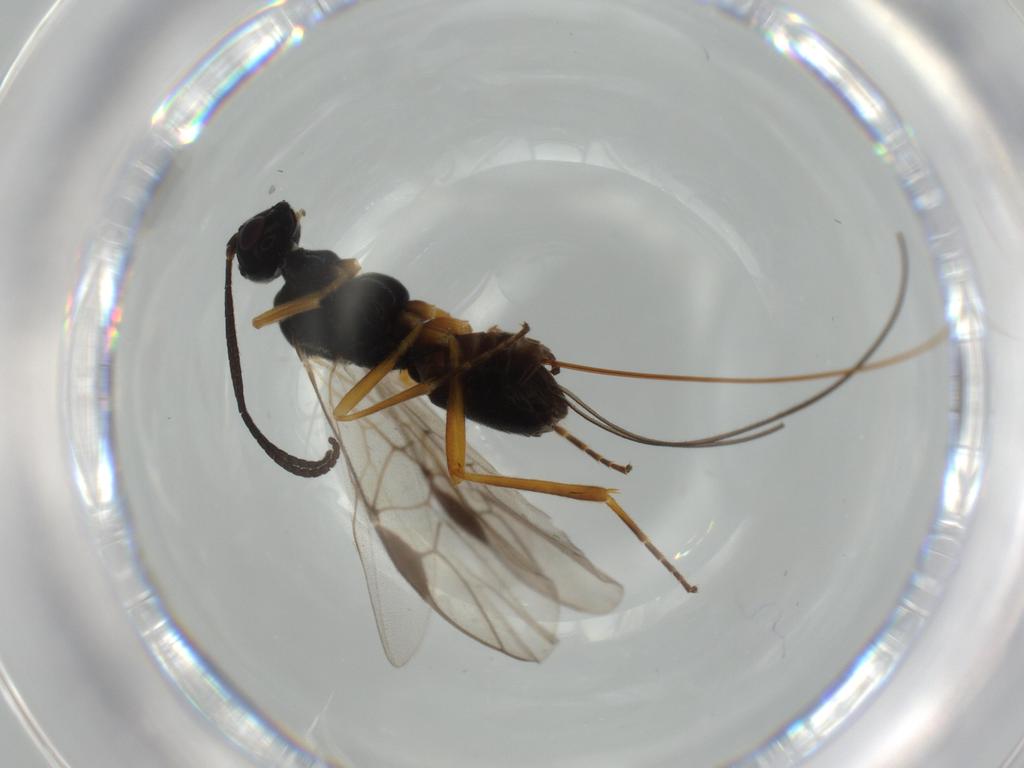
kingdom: Animalia
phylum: Arthropoda
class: Insecta
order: Hymenoptera
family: Braconidae
